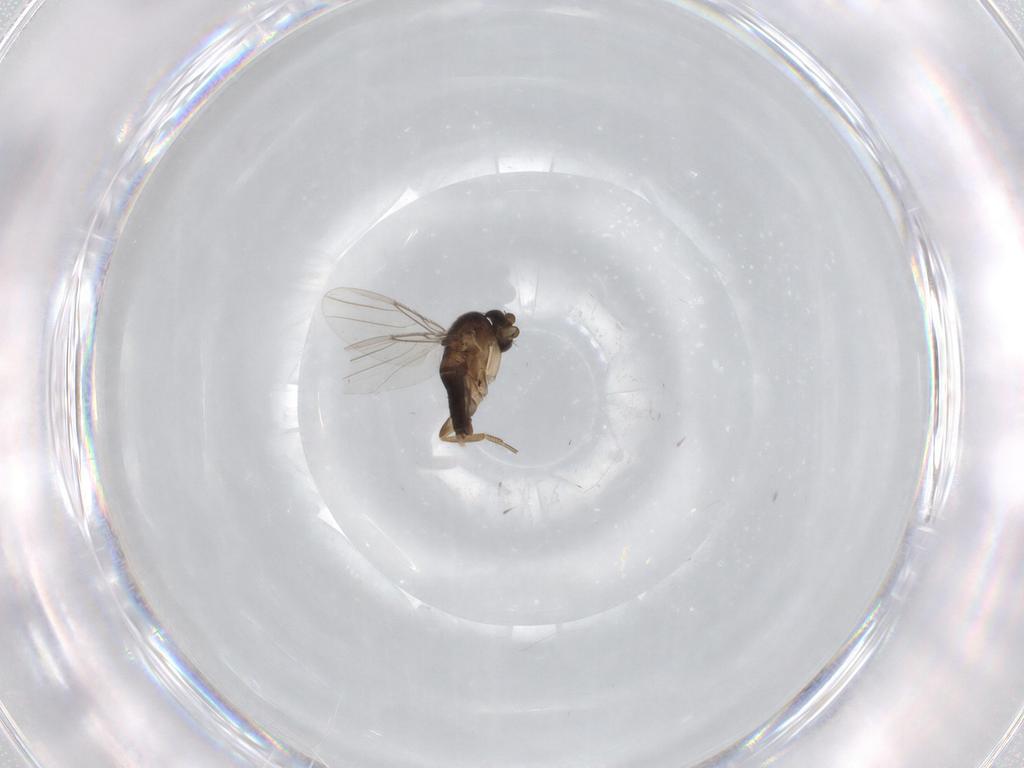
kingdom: Animalia
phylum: Arthropoda
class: Insecta
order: Diptera
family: Phoridae
